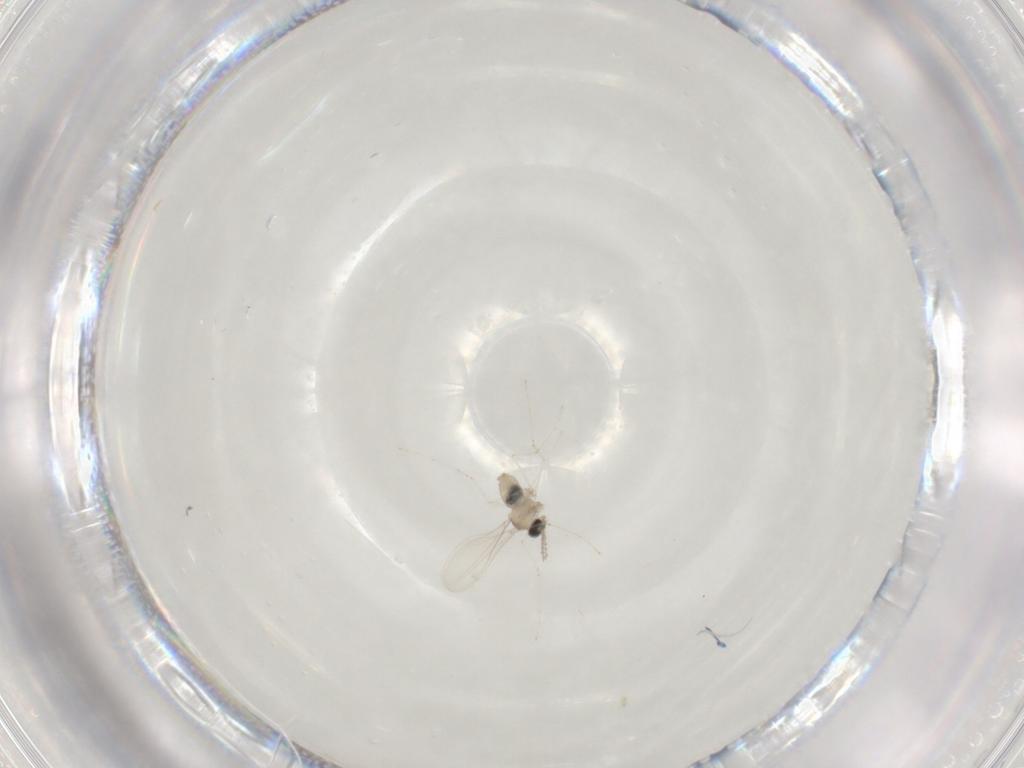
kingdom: Animalia
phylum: Arthropoda
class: Insecta
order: Diptera
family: Cecidomyiidae
